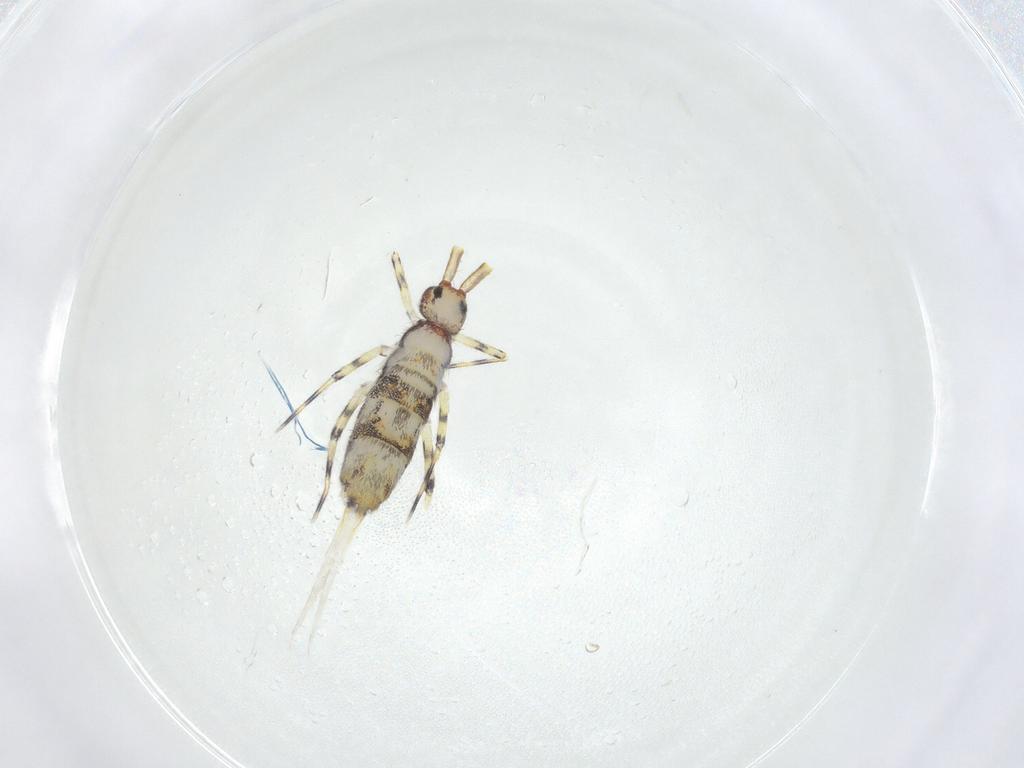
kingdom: Animalia
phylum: Arthropoda
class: Collembola
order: Entomobryomorpha
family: Entomobryidae
